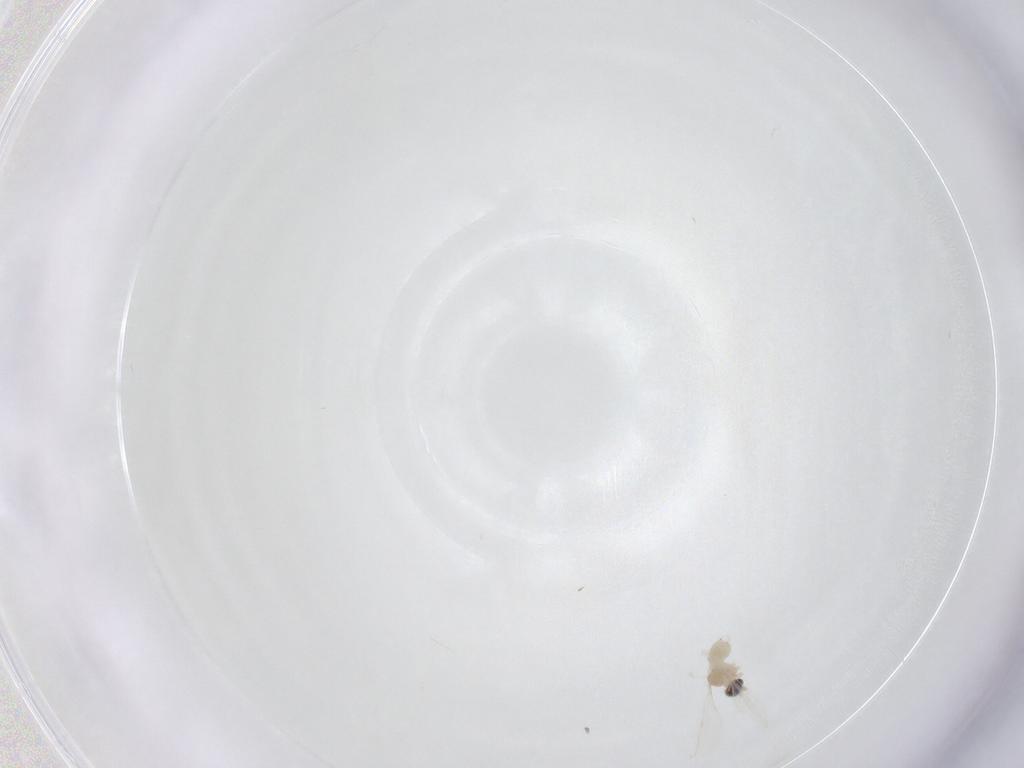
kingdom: Animalia
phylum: Arthropoda
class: Insecta
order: Diptera
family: Cecidomyiidae
